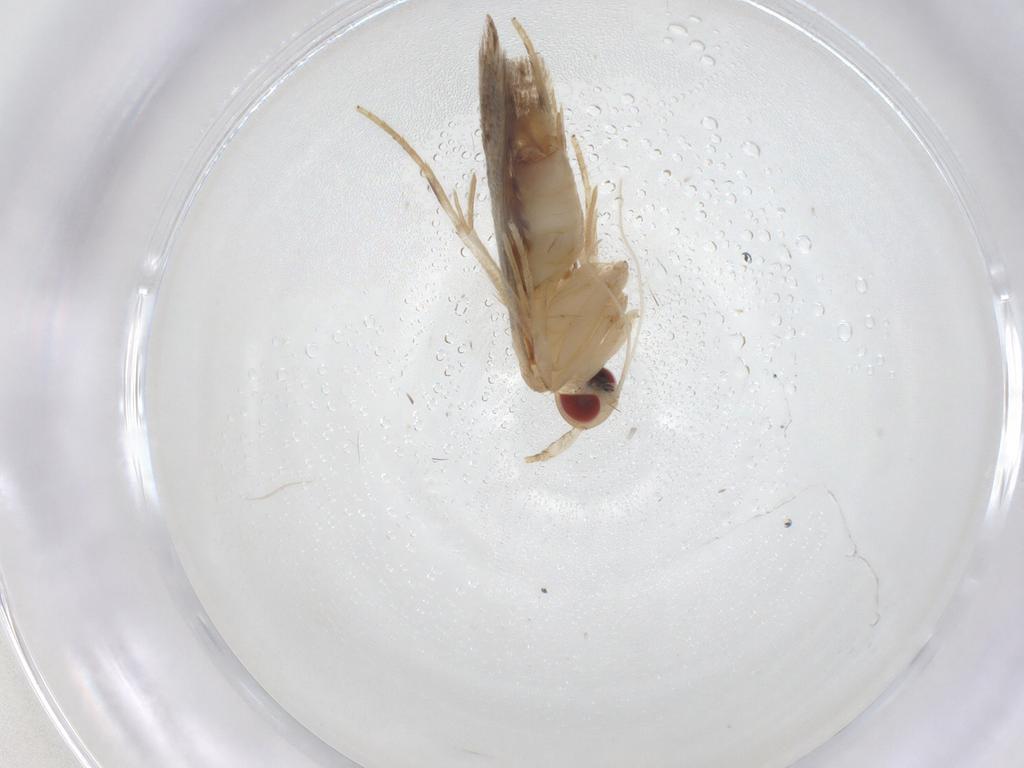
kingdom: Animalia
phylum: Arthropoda
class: Insecta
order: Lepidoptera
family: Cosmopterigidae
